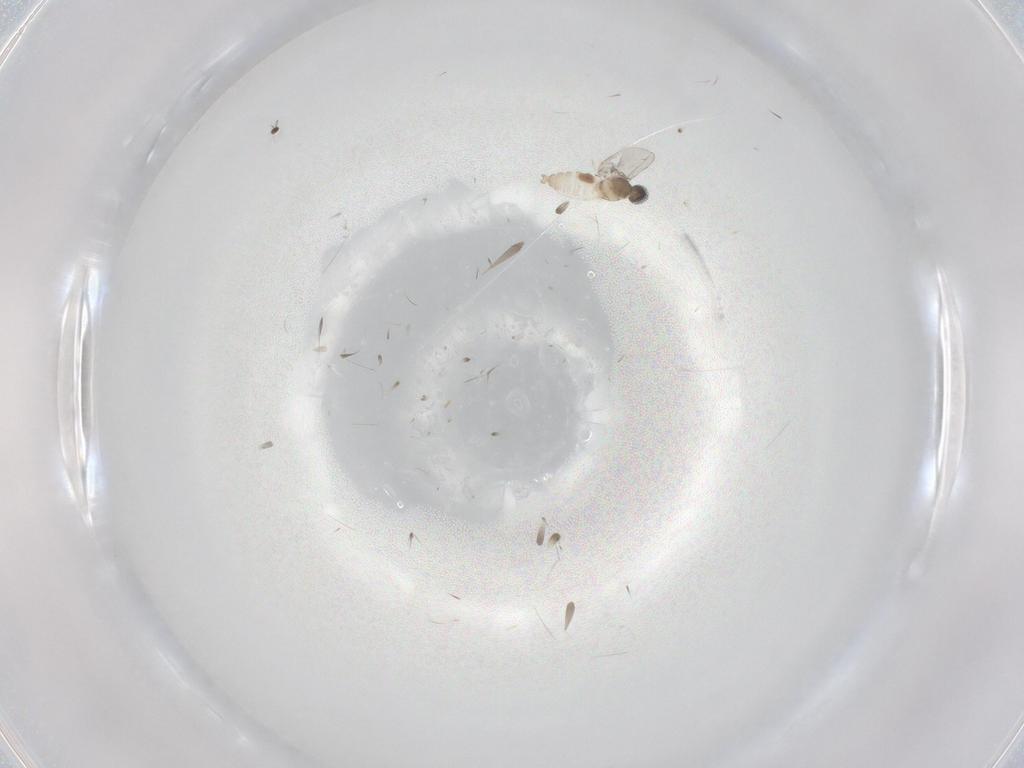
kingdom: Animalia
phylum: Arthropoda
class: Insecta
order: Diptera
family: Cecidomyiidae
